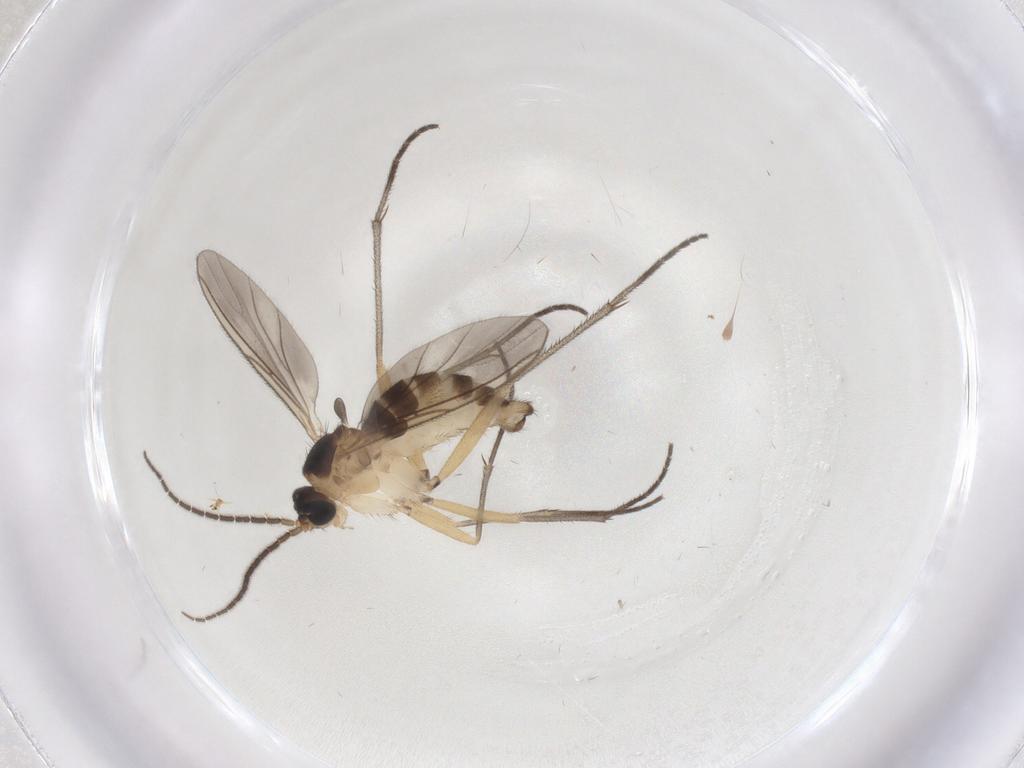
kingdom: Animalia
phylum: Arthropoda
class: Insecta
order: Diptera
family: Sciaridae
